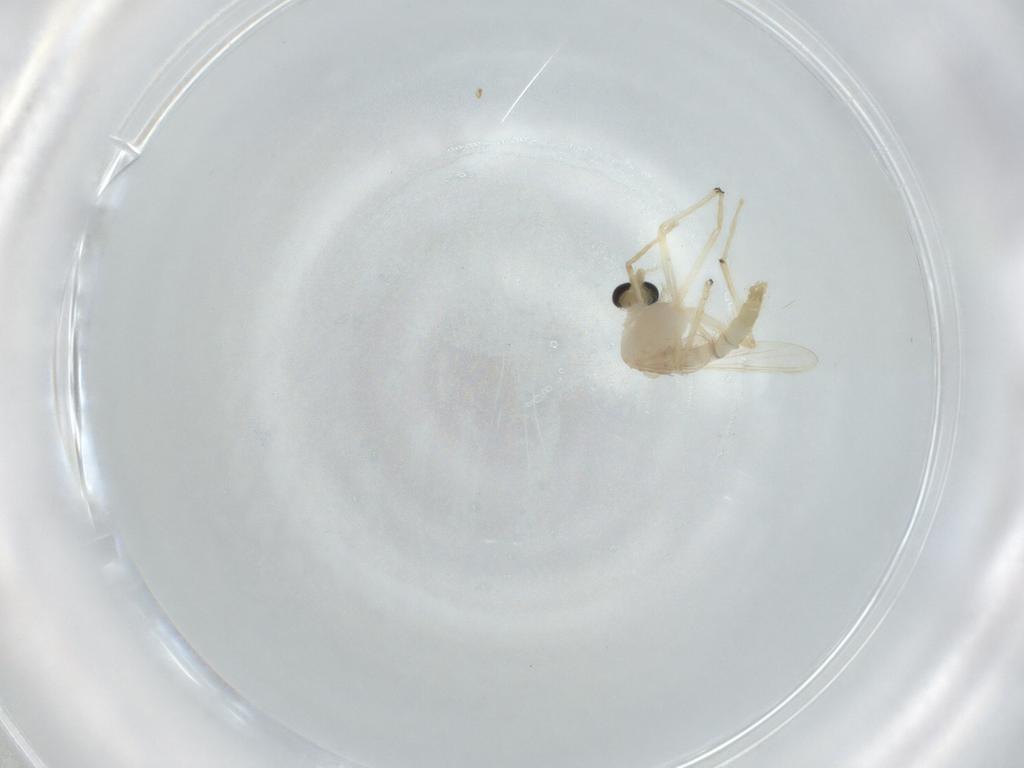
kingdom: Animalia
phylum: Arthropoda
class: Insecta
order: Diptera
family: Chironomidae
